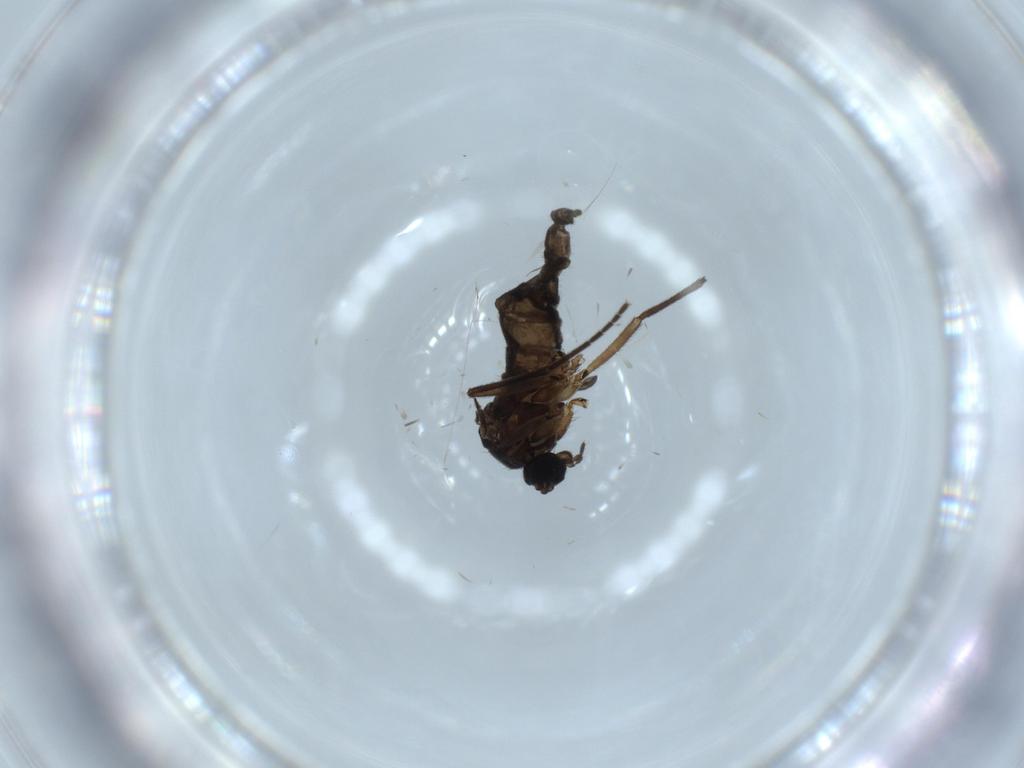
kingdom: Animalia
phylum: Arthropoda
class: Insecta
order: Diptera
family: Sciaridae
